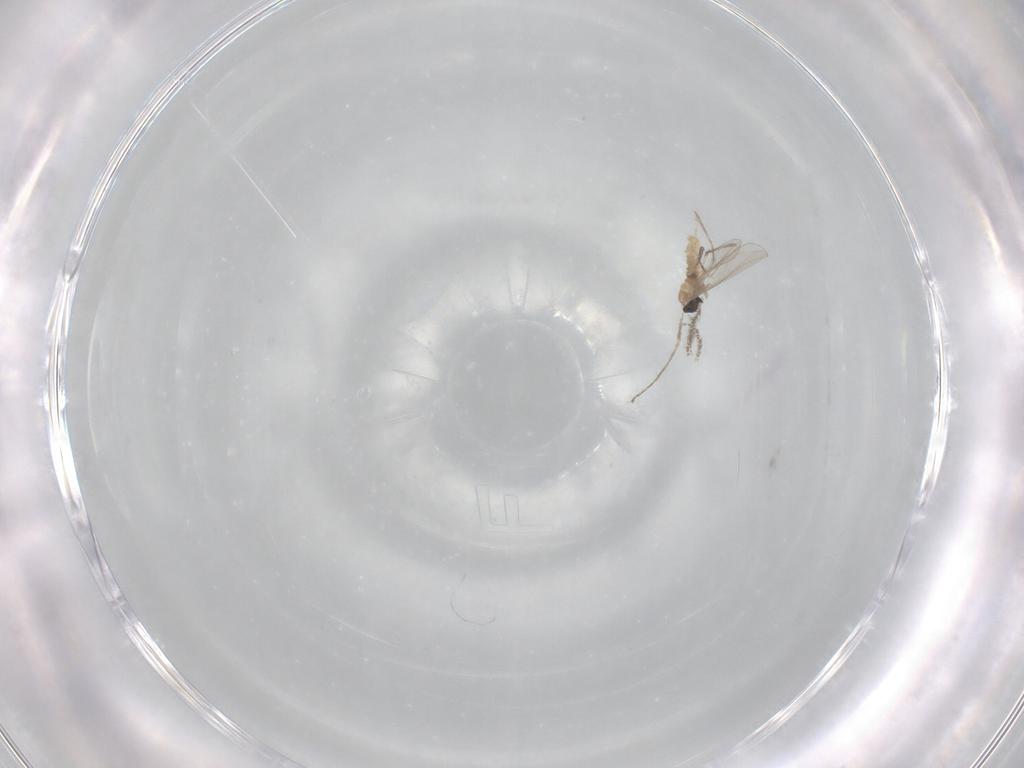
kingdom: Animalia
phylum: Arthropoda
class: Insecta
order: Diptera
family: Cecidomyiidae
